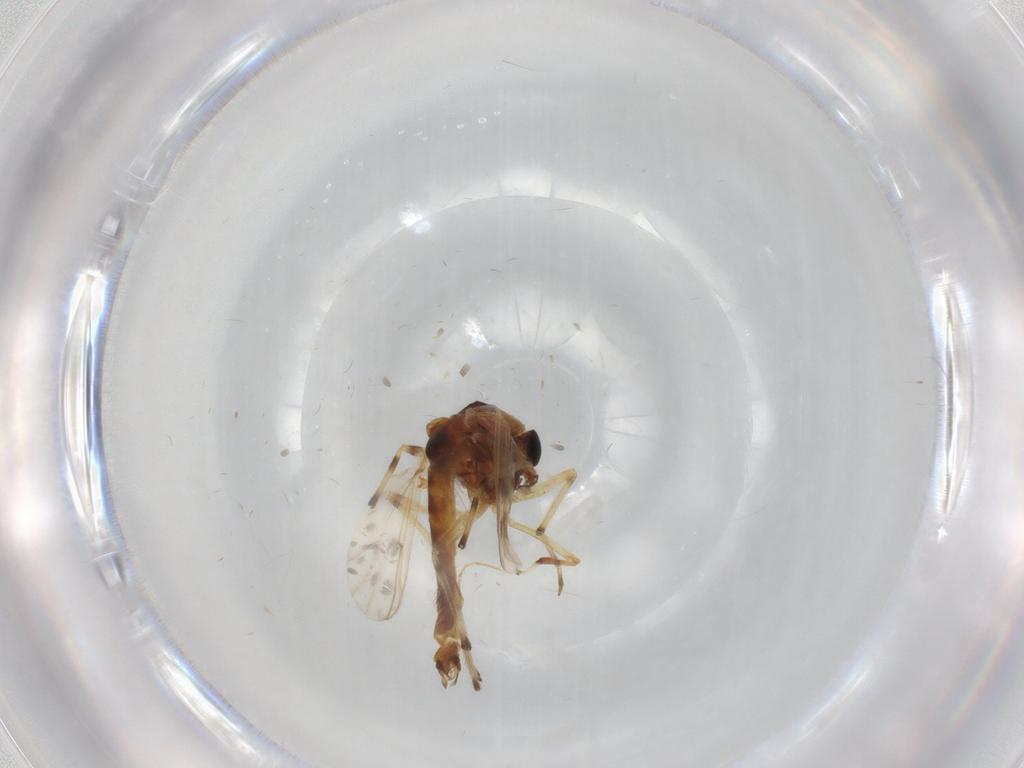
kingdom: Animalia
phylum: Arthropoda
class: Insecta
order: Diptera
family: Chironomidae
